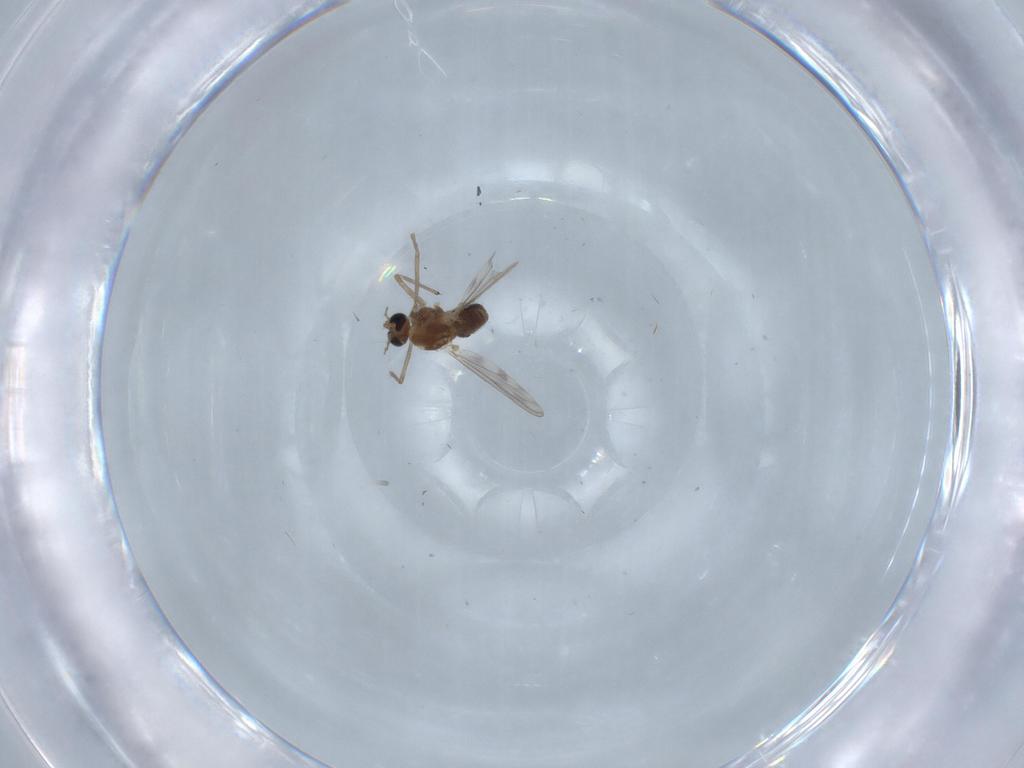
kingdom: Animalia
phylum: Arthropoda
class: Insecta
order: Diptera
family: Chironomidae
